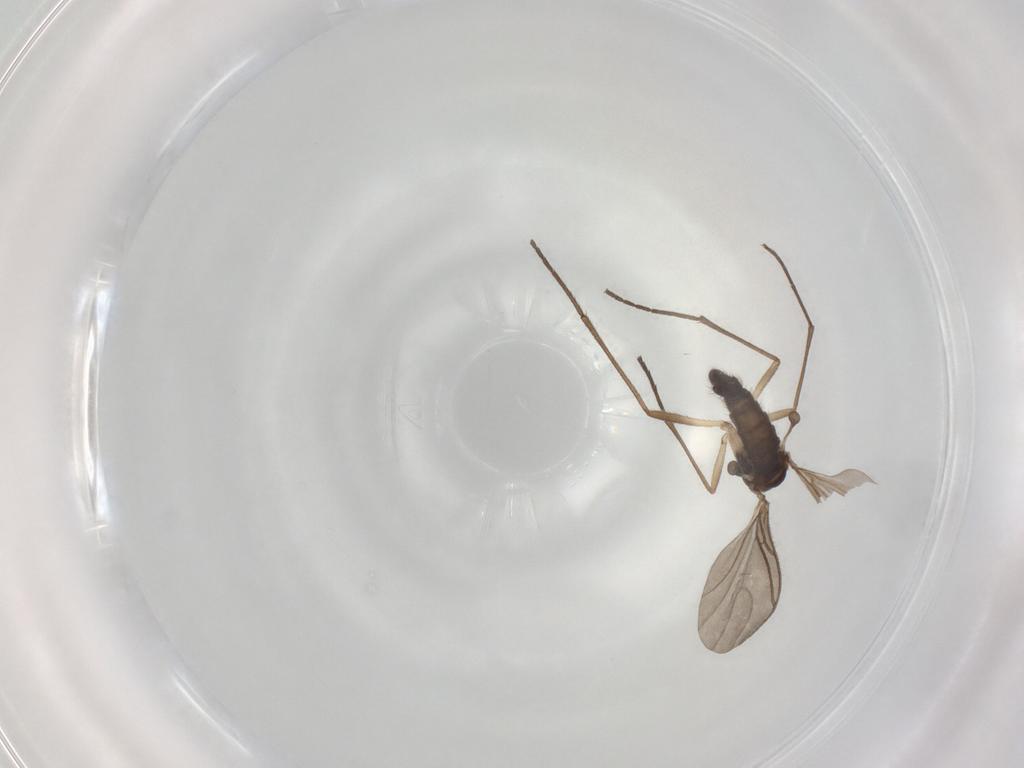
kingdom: Animalia
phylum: Arthropoda
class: Insecta
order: Diptera
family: Sciaridae
